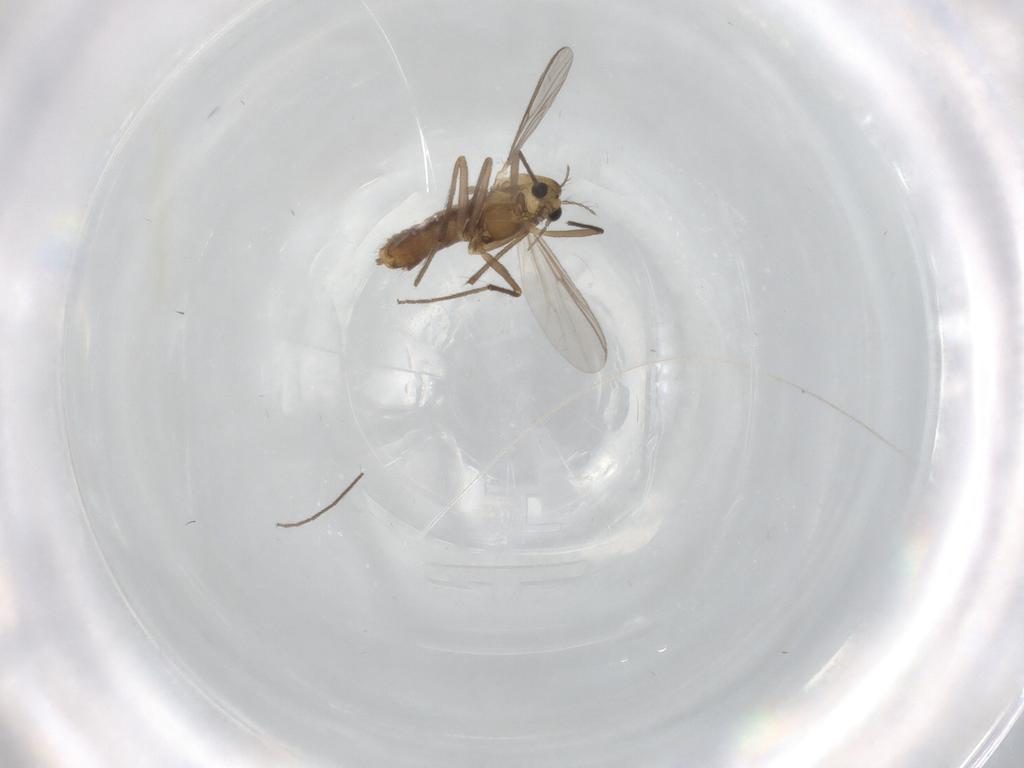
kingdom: Animalia
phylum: Arthropoda
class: Insecta
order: Diptera
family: Chironomidae
